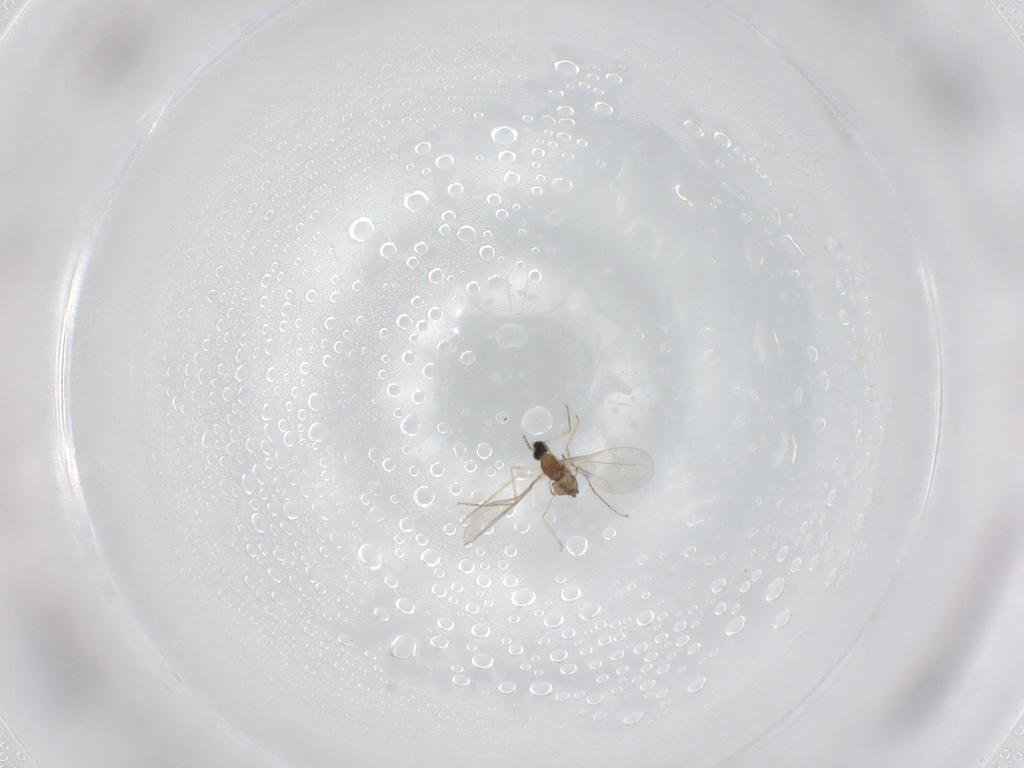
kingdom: Animalia
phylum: Arthropoda
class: Insecta
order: Diptera
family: Cecidomyiidae
